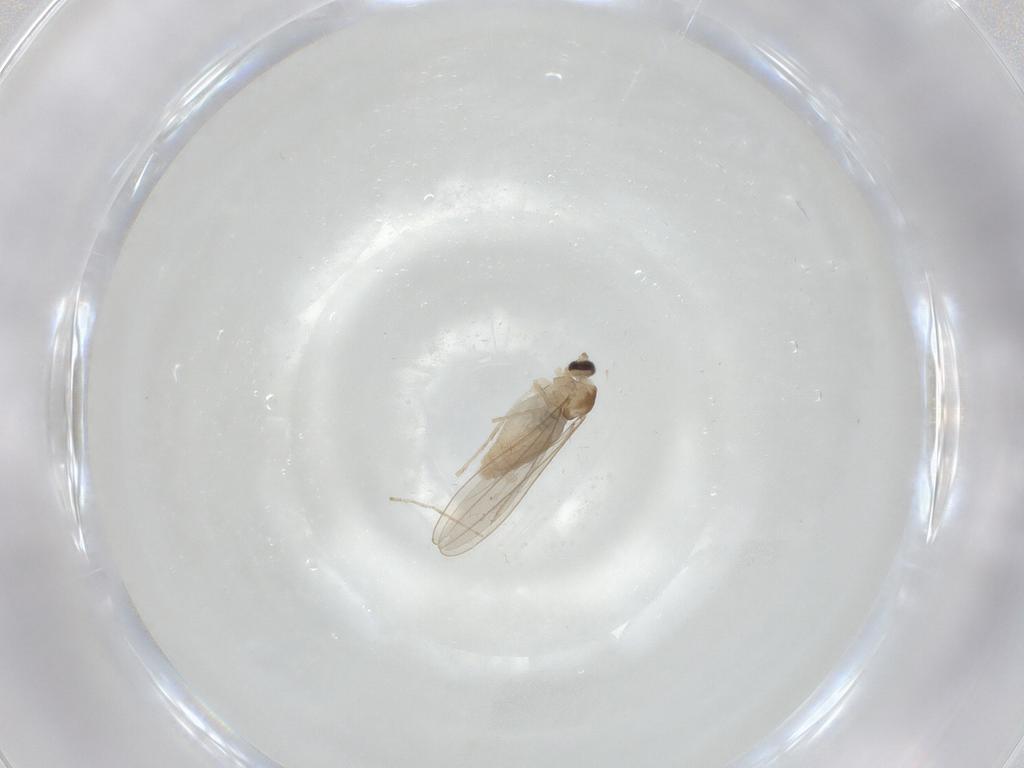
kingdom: Animalia
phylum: Arthropoda
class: Insecta
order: Diptera
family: Cecidomyiidae
